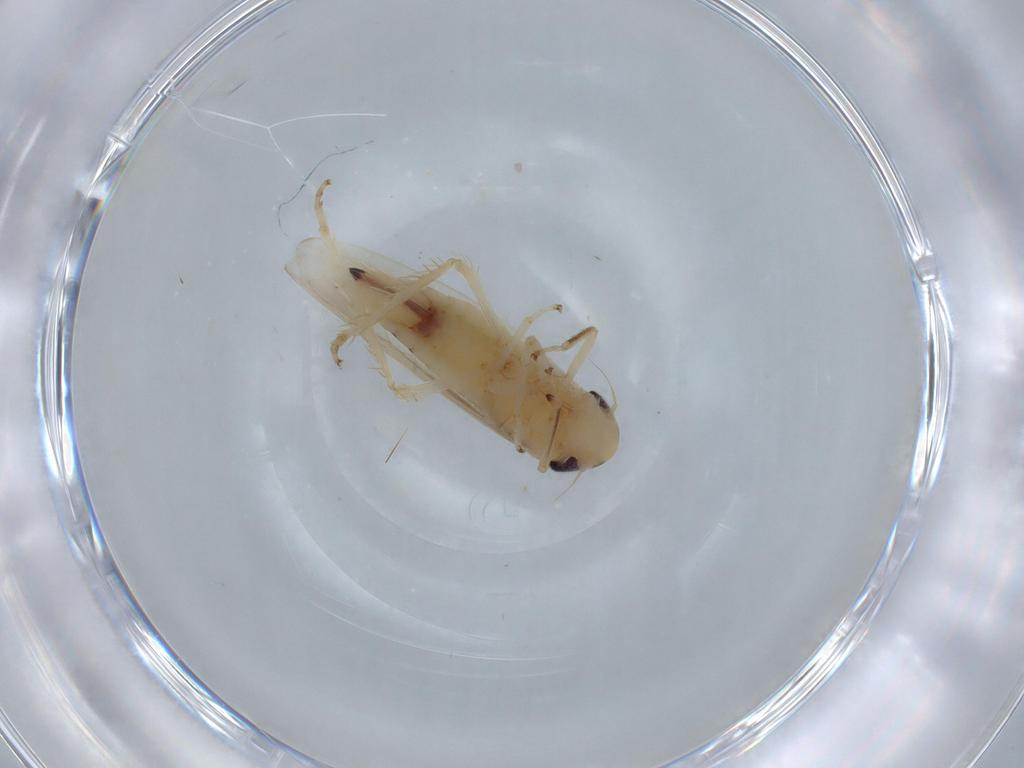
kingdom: Animalia
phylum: Arthropoda
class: Insecta
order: Hemiptera
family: Cicadellidae
